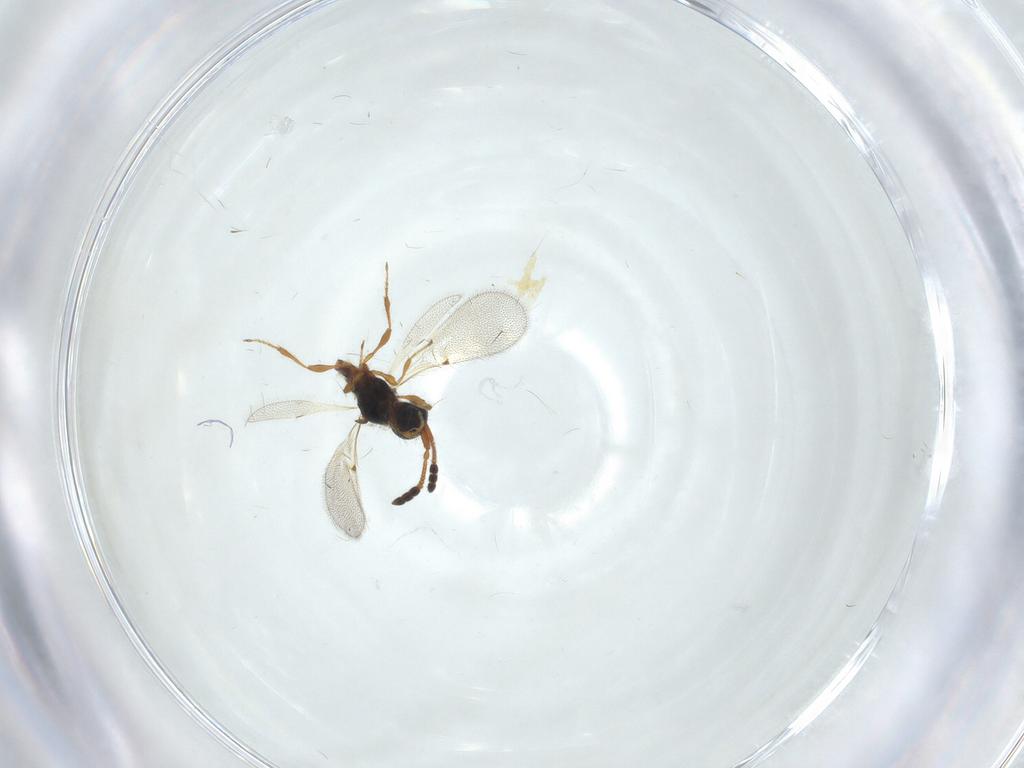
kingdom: Animalia
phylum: Arthropoda
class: Insecta
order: Hymenoptera
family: Diapriidae
